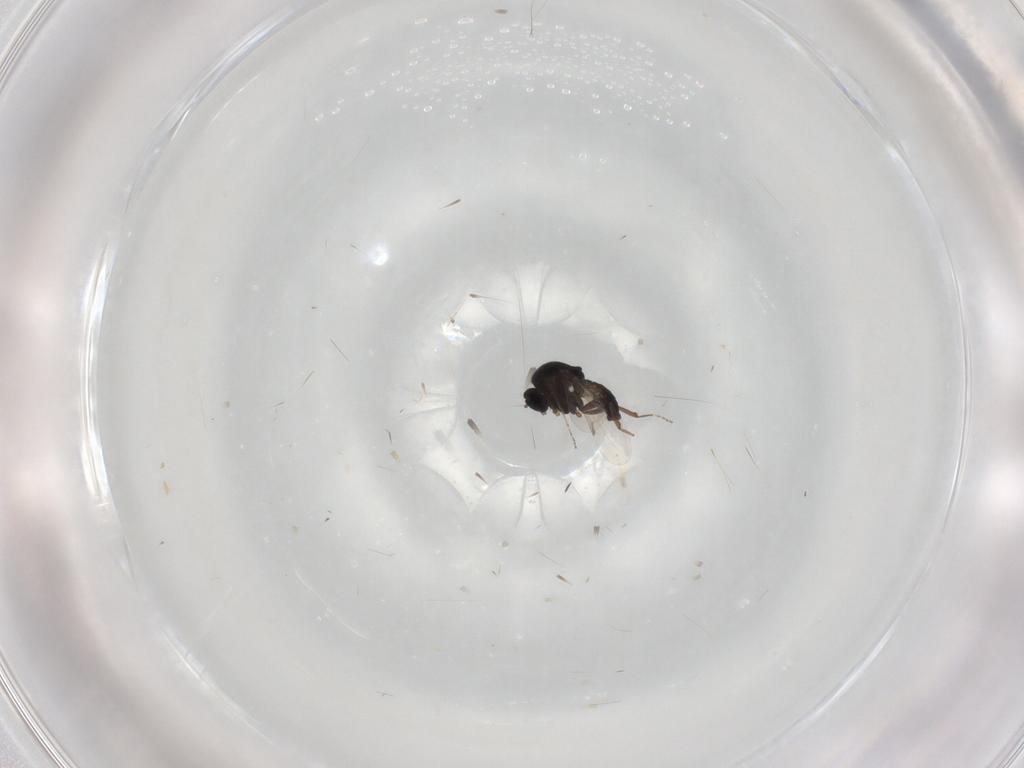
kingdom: Animalia
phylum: Arthropoda
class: Insecta
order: Diptera
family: Ceratopogonidae
